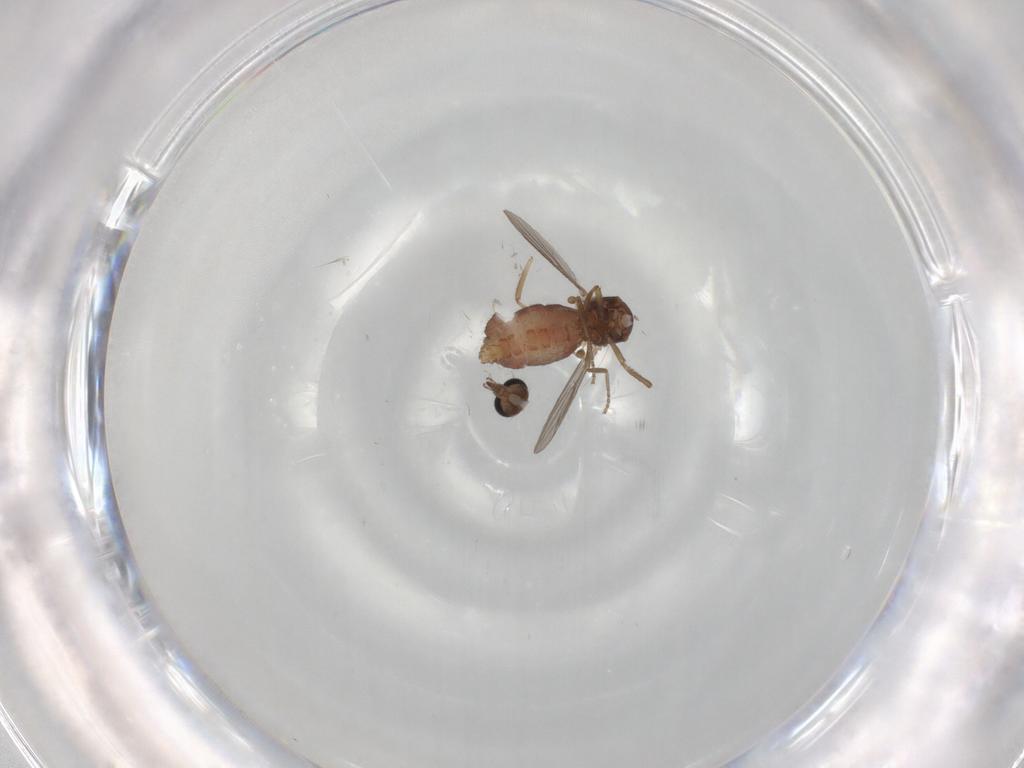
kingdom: Animalia
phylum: Arthropoda
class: Insecta
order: Diptera
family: Ceratopogonidae
